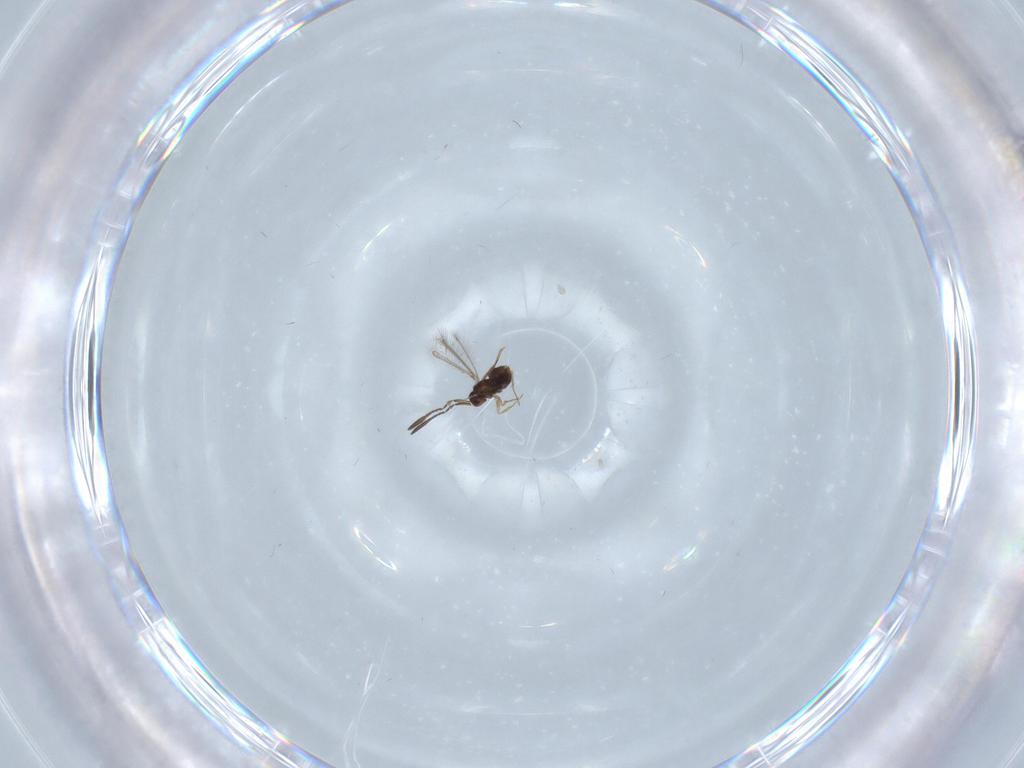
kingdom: Animalia
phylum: Arthropoda
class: Insecta
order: Hymenoptera
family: Mymaridae
